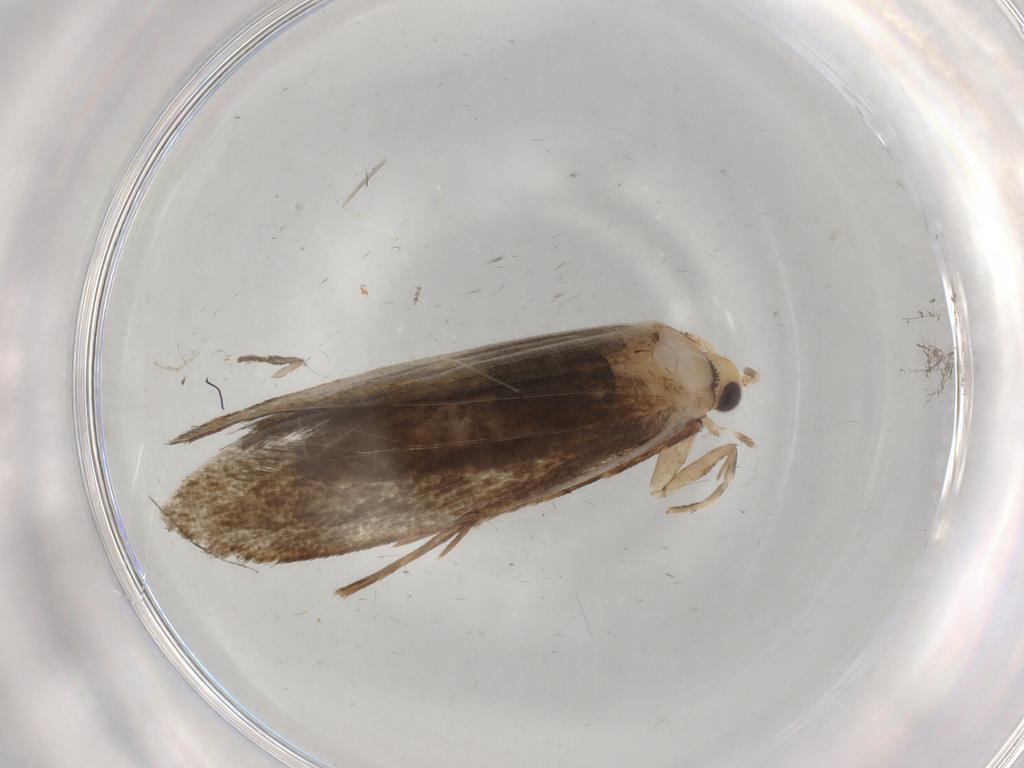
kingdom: Animalia
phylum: Arthropoda
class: Insecta
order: Lepidoptera
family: Tineidae
